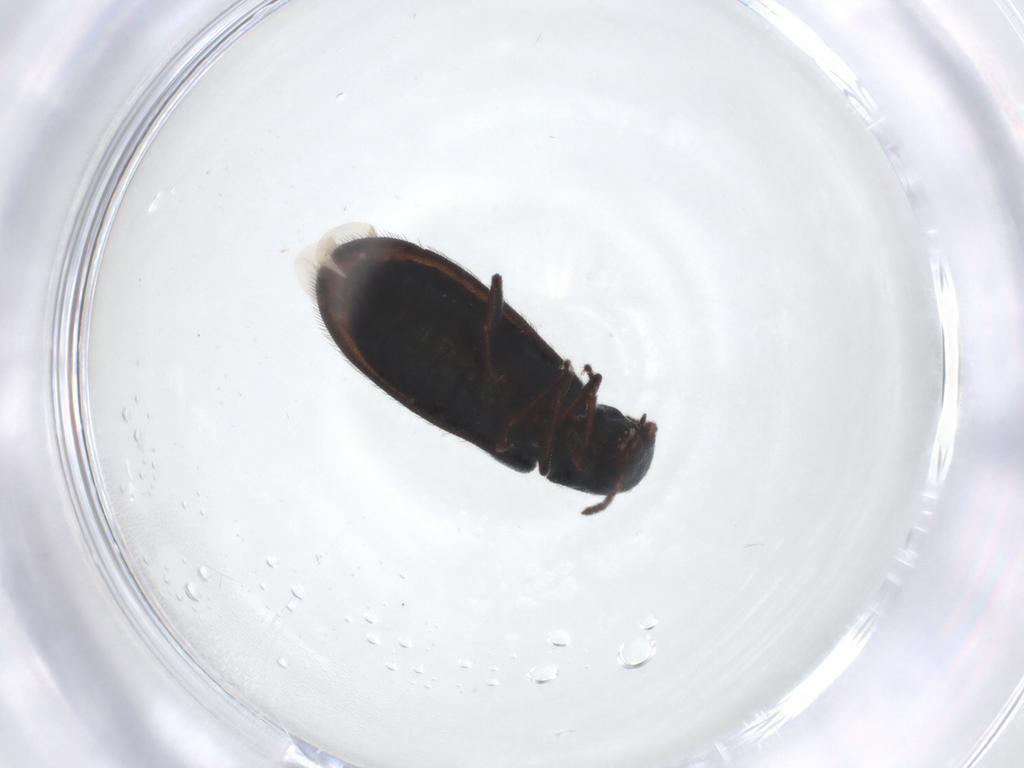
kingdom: Animalia
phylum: Arthropoda
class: Insecta
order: Coleoptera
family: Melyridae
